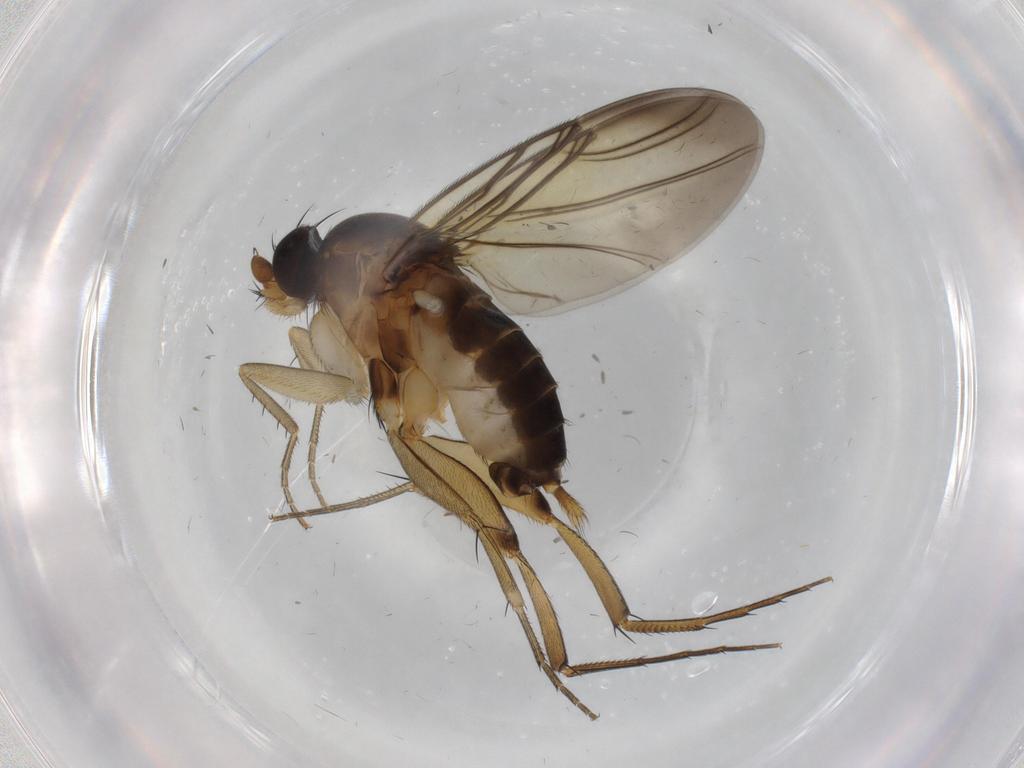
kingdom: Animalia
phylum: Arthropoda
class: Insecta
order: Diptera
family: Phoridae
